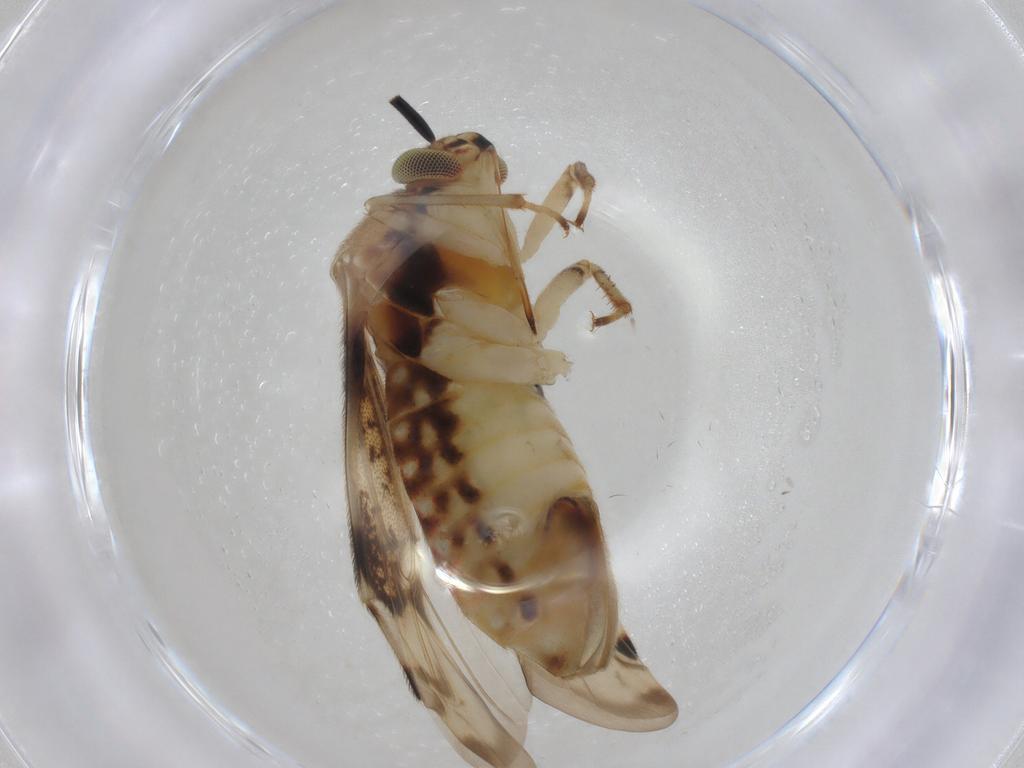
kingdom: Animalia
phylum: Arthropoda
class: Insecta
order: Hemiptera
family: Miridae
